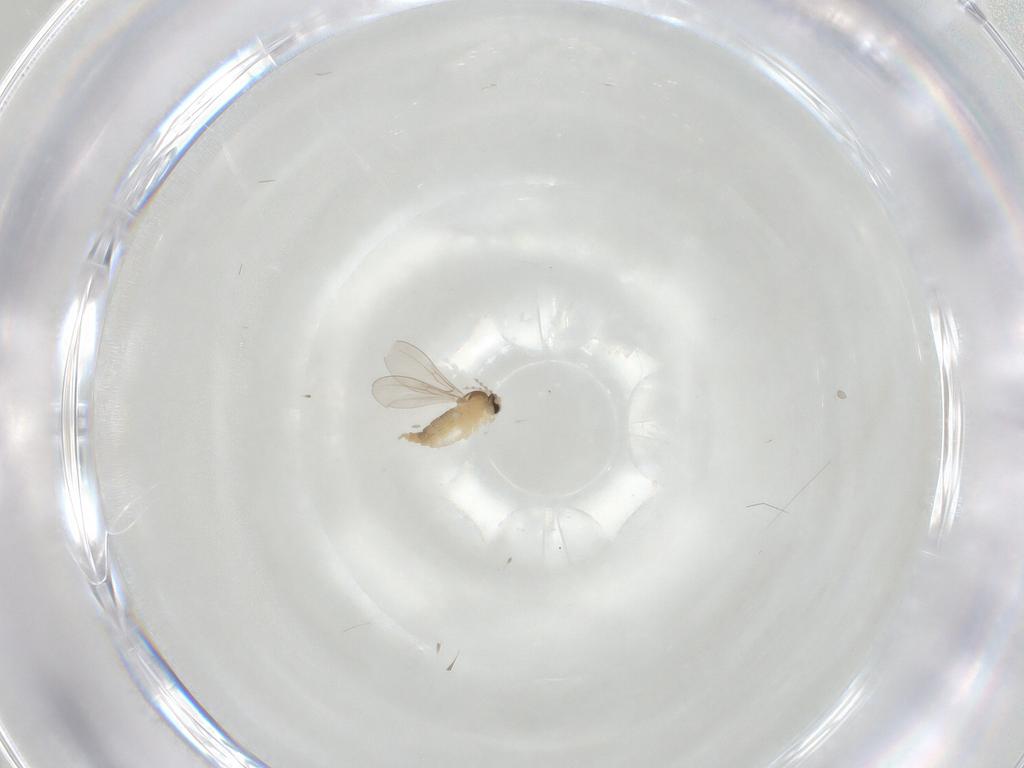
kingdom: Animalia
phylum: Arthropoda
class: Insecta
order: Diptera
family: Cecidomyiidae
